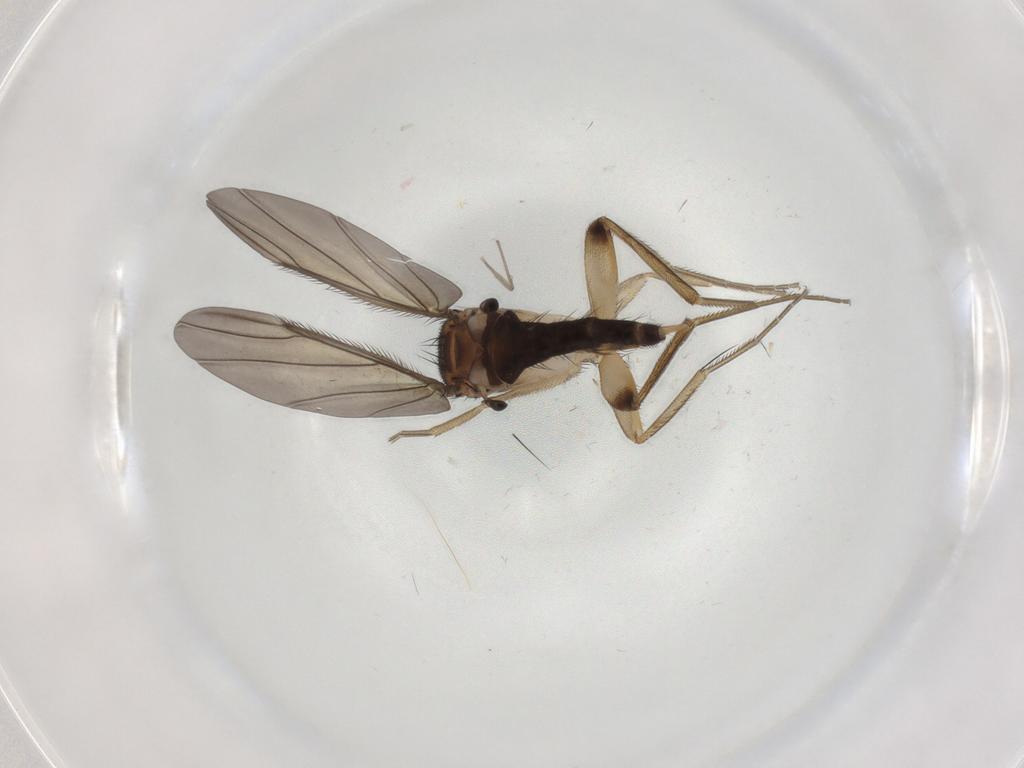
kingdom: Animalia
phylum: Arthropoda
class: Insecta
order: Diptera
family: Phoridae
